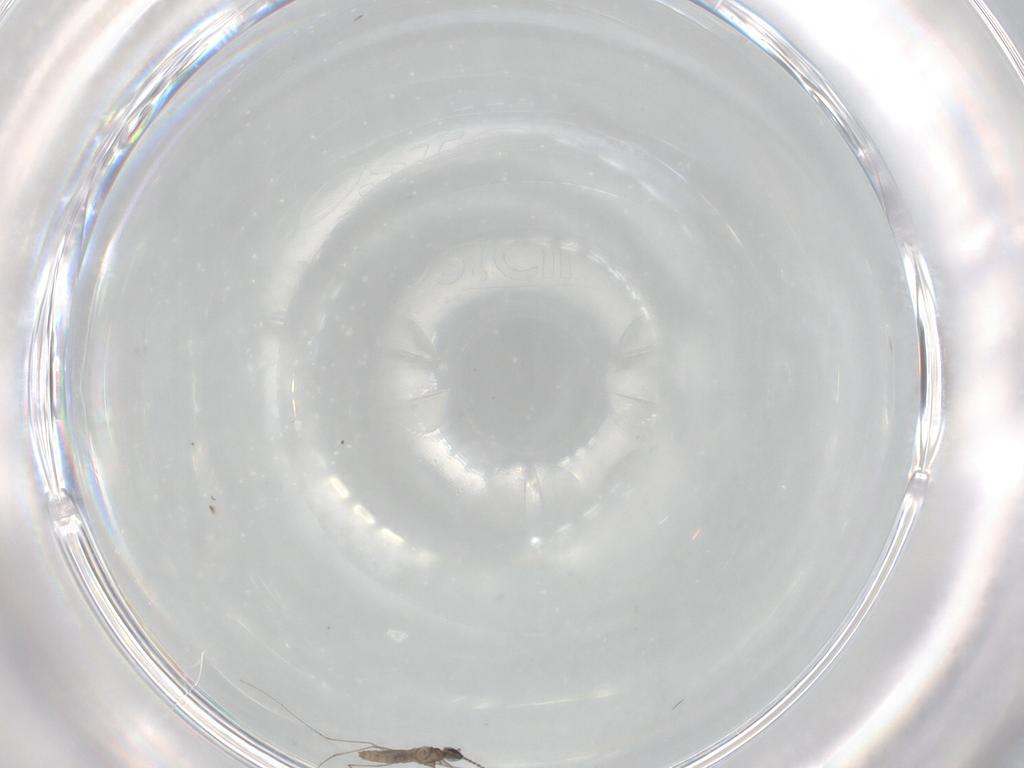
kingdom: Animalia
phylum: Arthropoda
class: Insecta
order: Diptera
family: Cecidomyiidae
